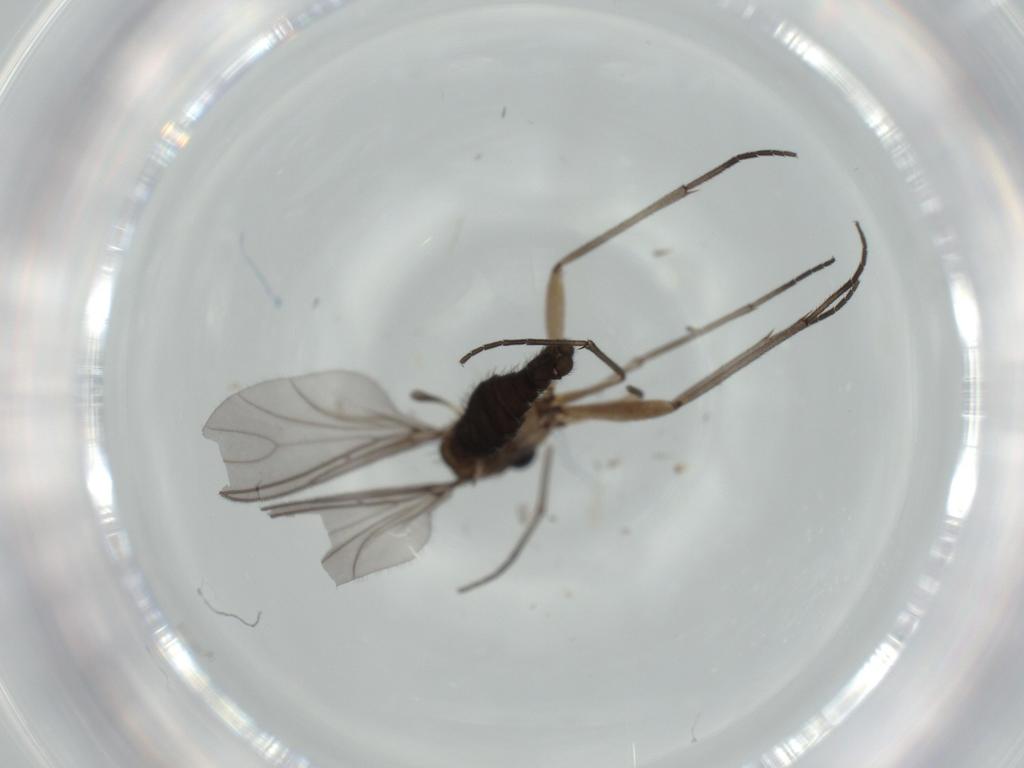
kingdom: Animalia
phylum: Arthropoda
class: Insecta
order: Diptera
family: Sciaridae
